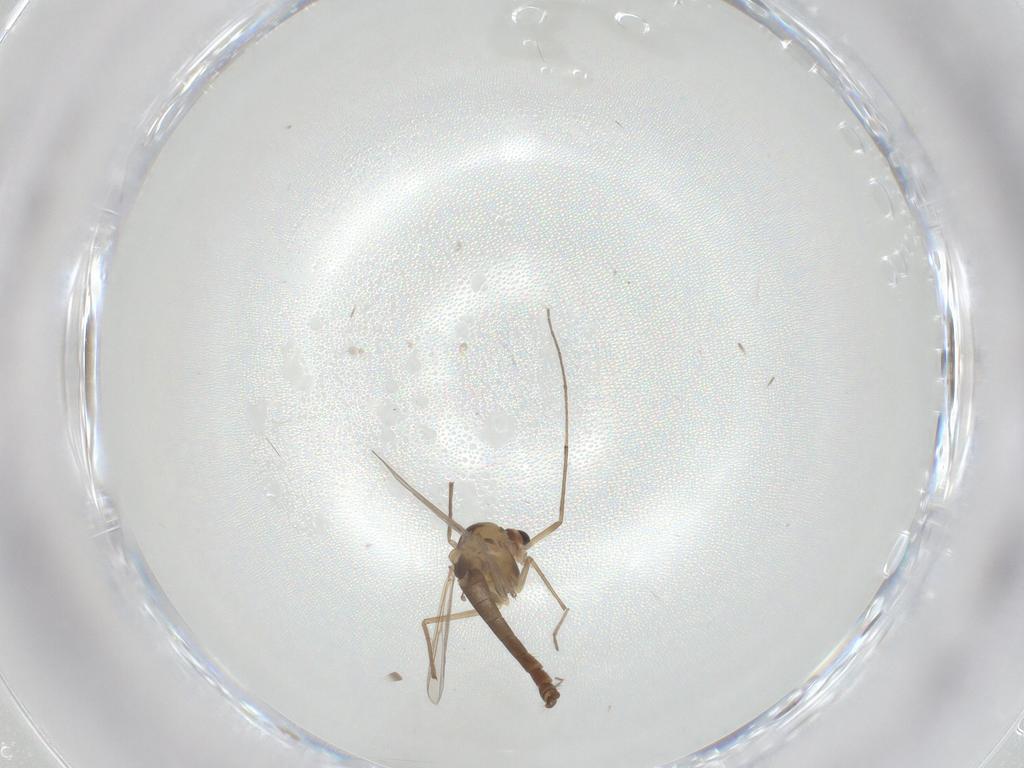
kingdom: Animalia
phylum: Arthropoda
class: Insecta
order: Diptera
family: Chironomidae
